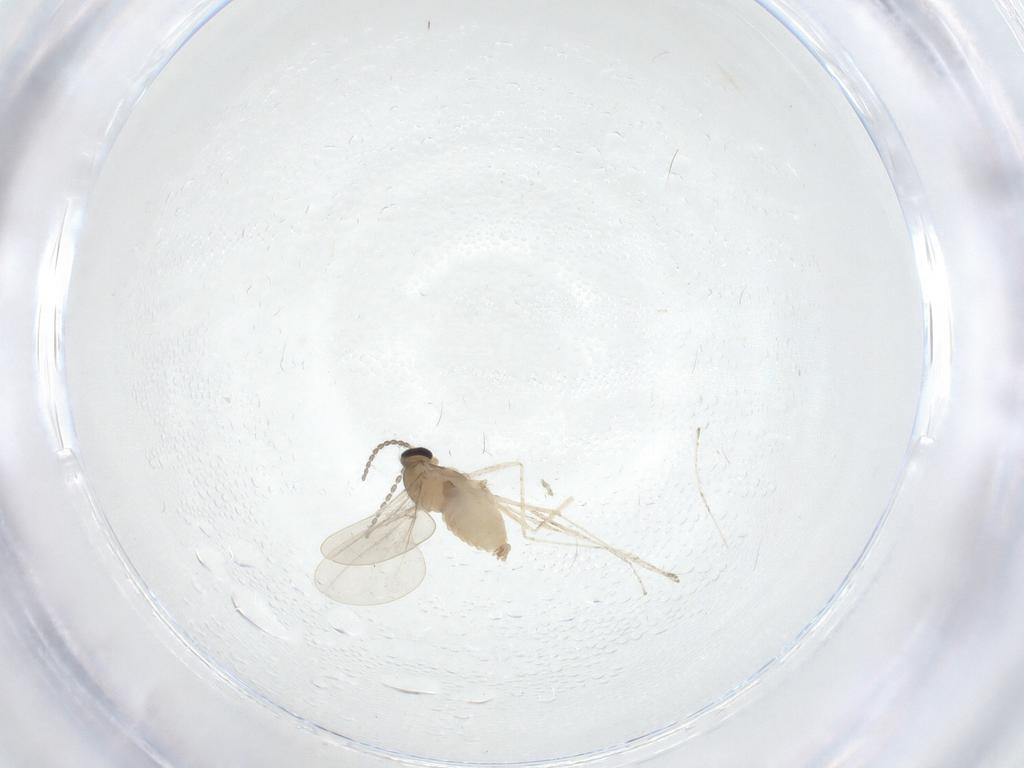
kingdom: Animalia
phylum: Arthropoda
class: Insecta
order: Diptera
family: Cecidomyiidae
